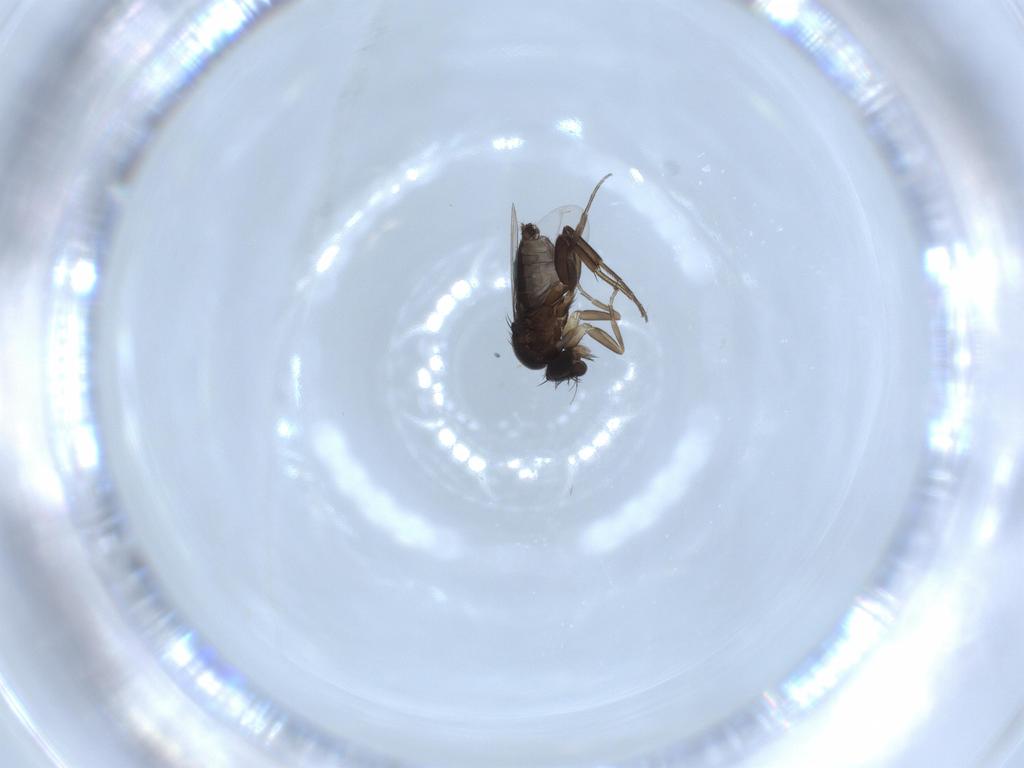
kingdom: Animalia
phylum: Arthropoda
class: Insecta
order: Diptera
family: Phoridae
